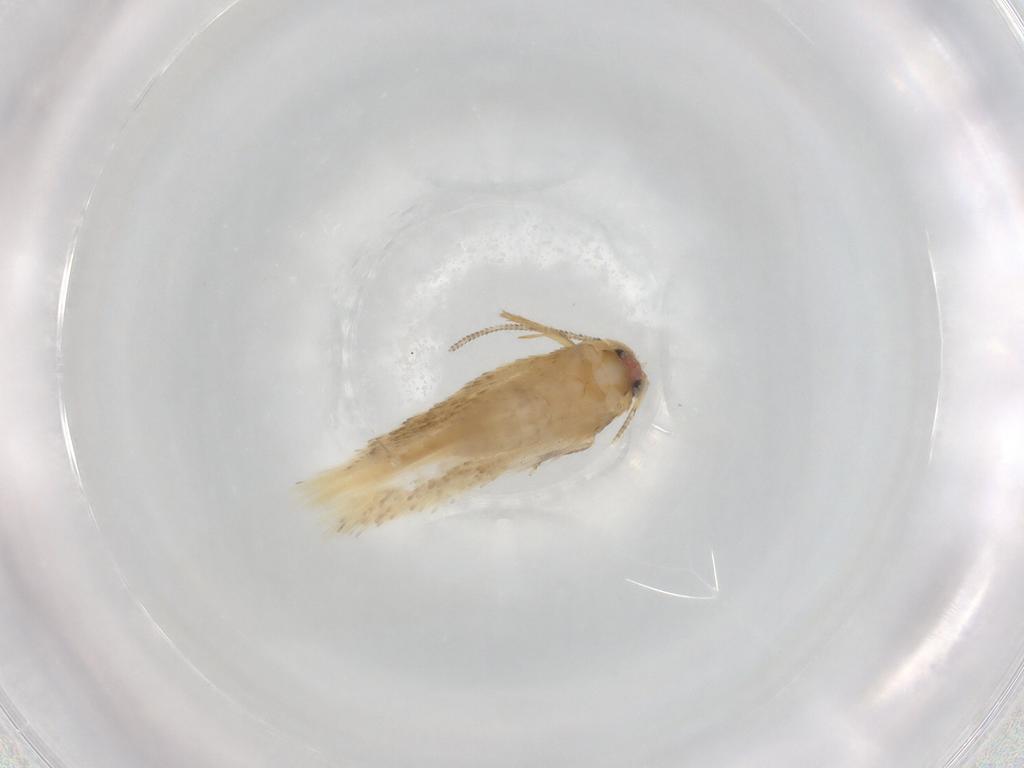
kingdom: Animalia
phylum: Arthropoda
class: Insecta
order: Lepidoptera
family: Nepticulidae
